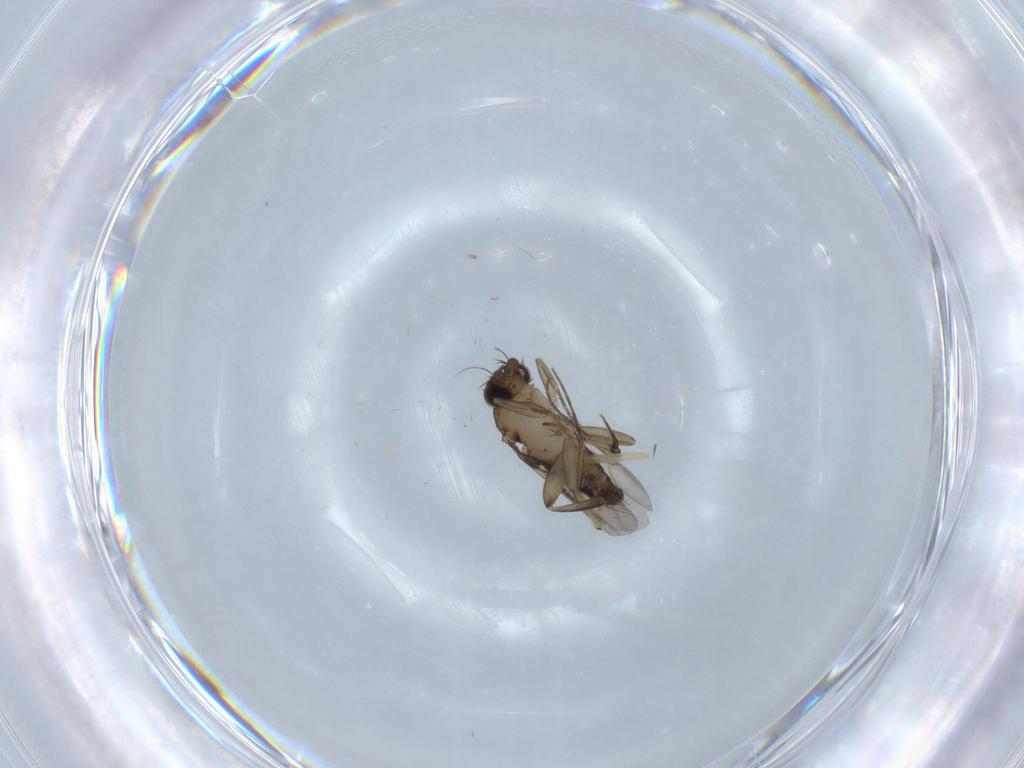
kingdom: Animalia
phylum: Arthropoda
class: Insecta
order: Diptera
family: Phoridae
